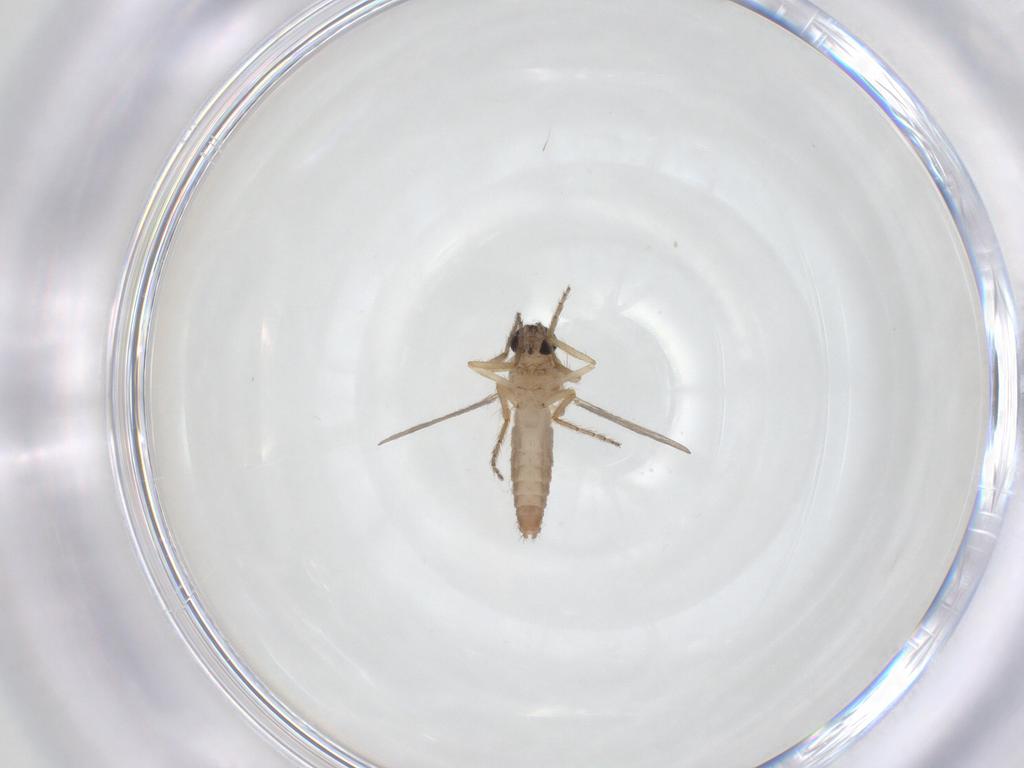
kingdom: Animalia
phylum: Arthropoda
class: Insecta
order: Diptera
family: Ceratopogonidae
